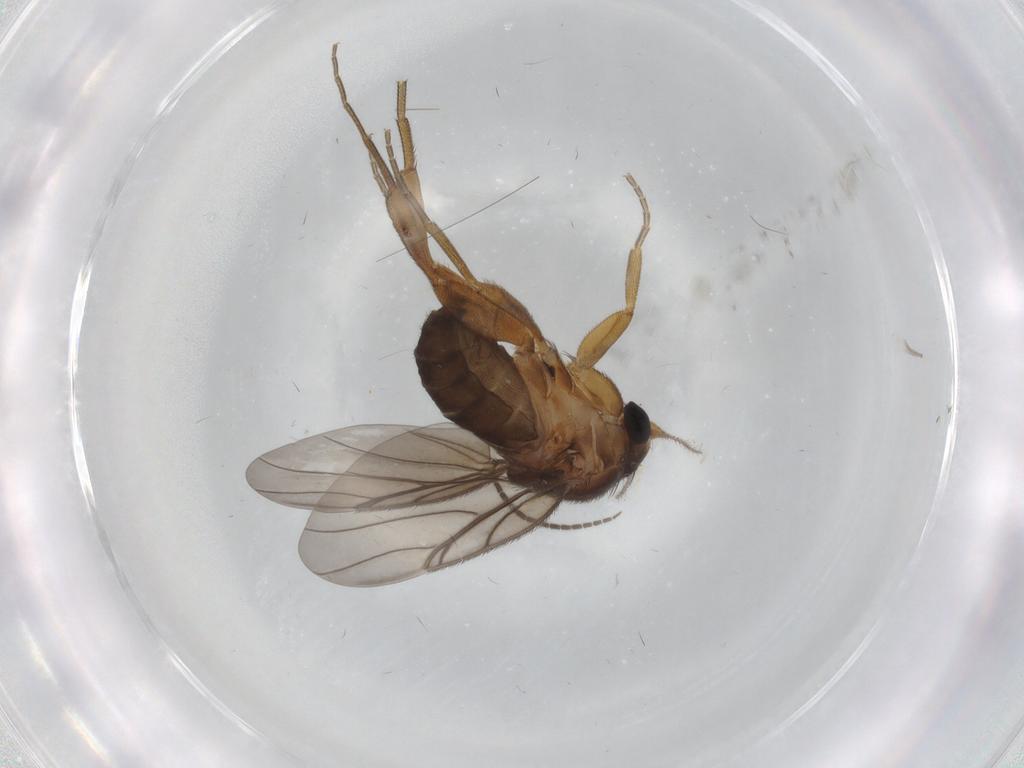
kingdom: Animalia
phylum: Arthropoda
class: Insecta
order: Diptera
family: Sciaridae
